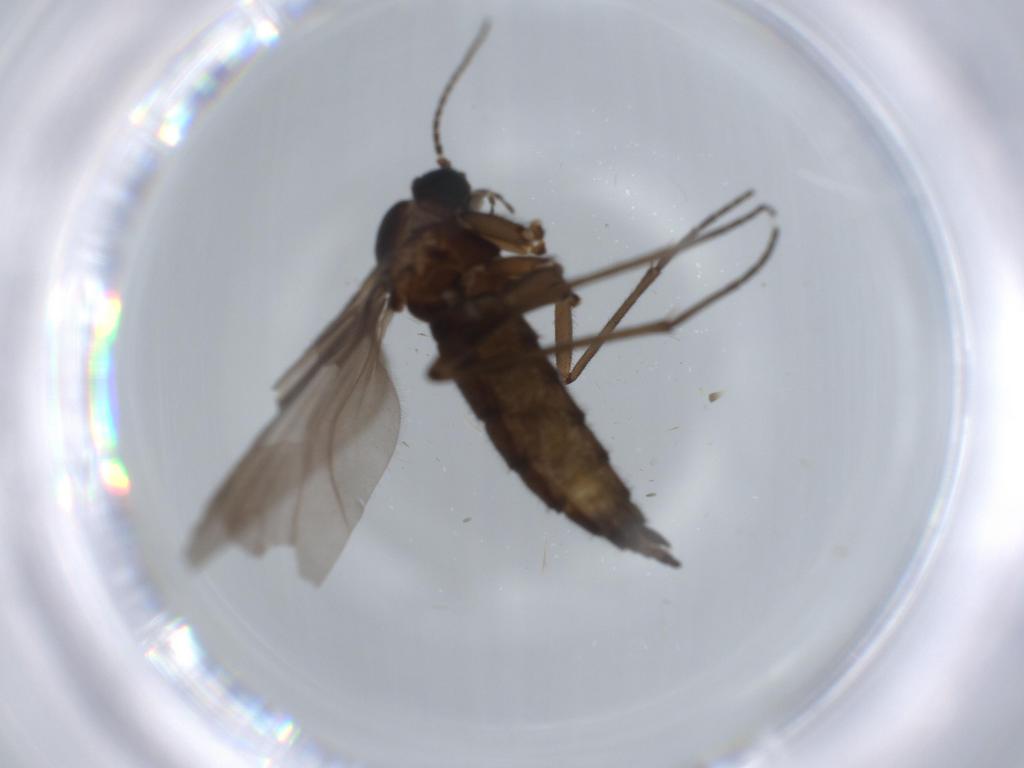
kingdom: Animalia
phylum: Arthropoda
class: Insecta
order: Diptera
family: Sciaridae
